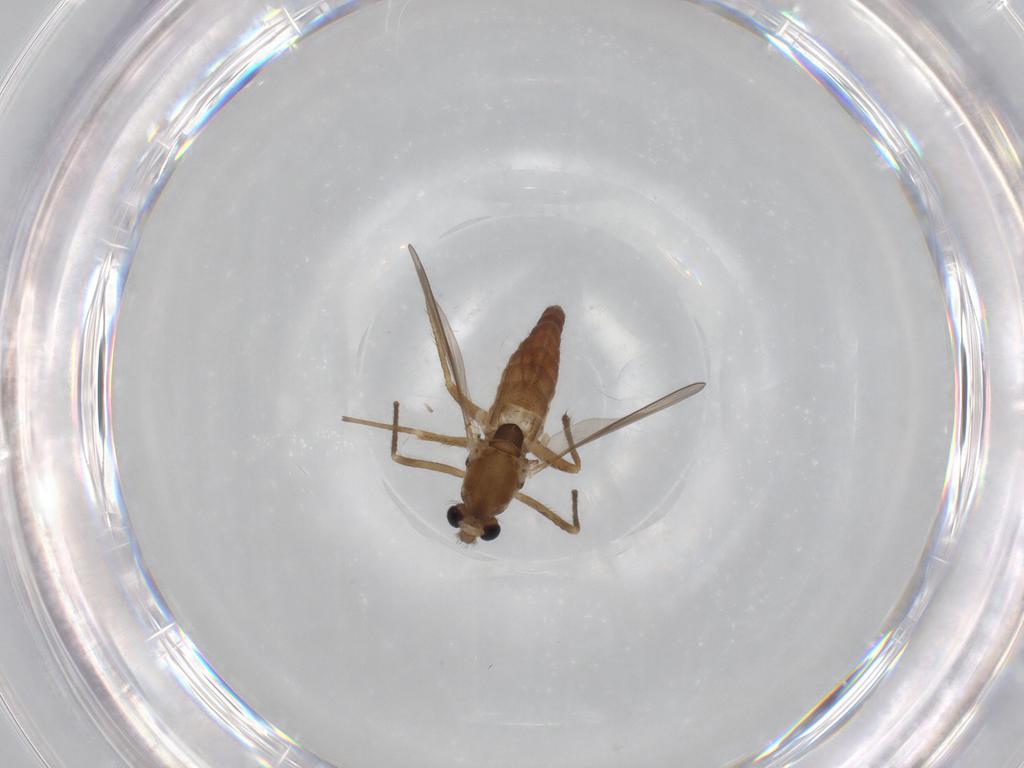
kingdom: Animalia
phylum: Arthropoda
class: Insecta
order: Diptera
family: Chironomidae
